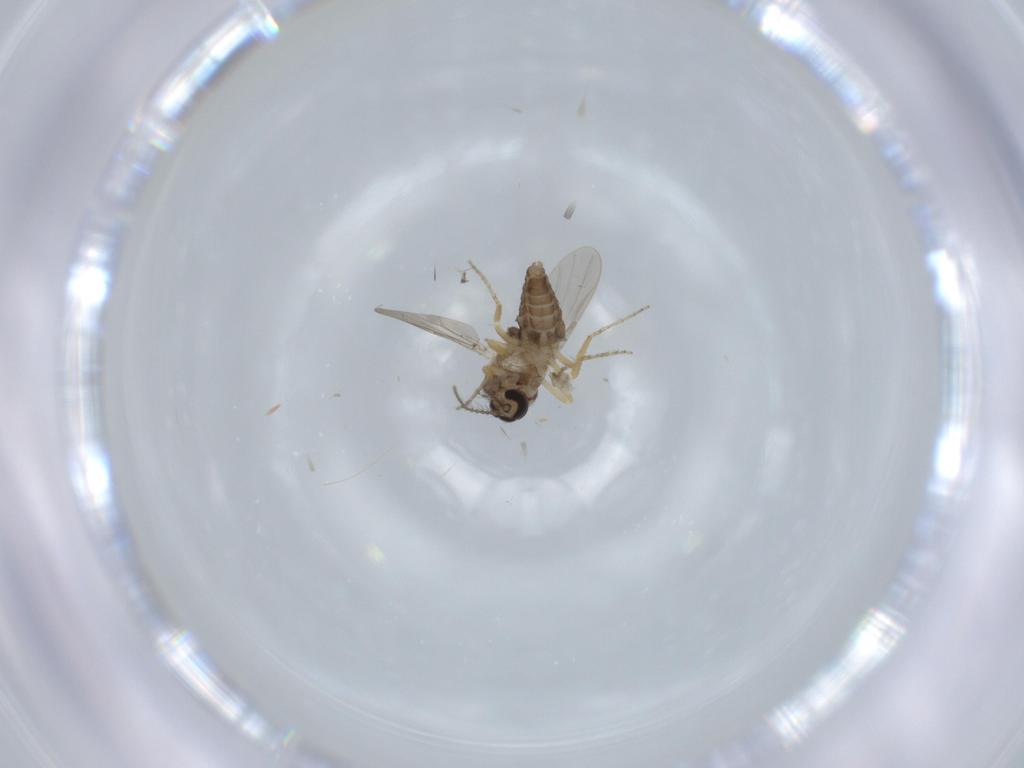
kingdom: Animalia
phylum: Arthropoda
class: Insecta
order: Diptera
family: Ceratopogonidae
